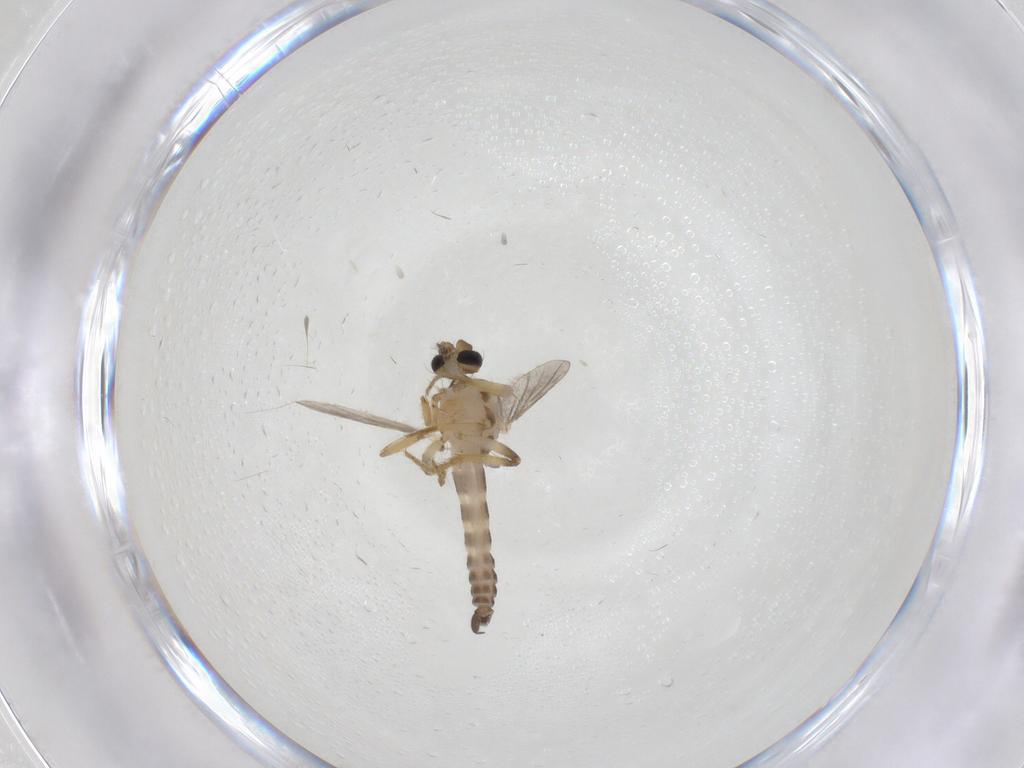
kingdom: Animalia
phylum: Arthropoda
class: Insecta
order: Diptera
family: Ceratopogonidae
